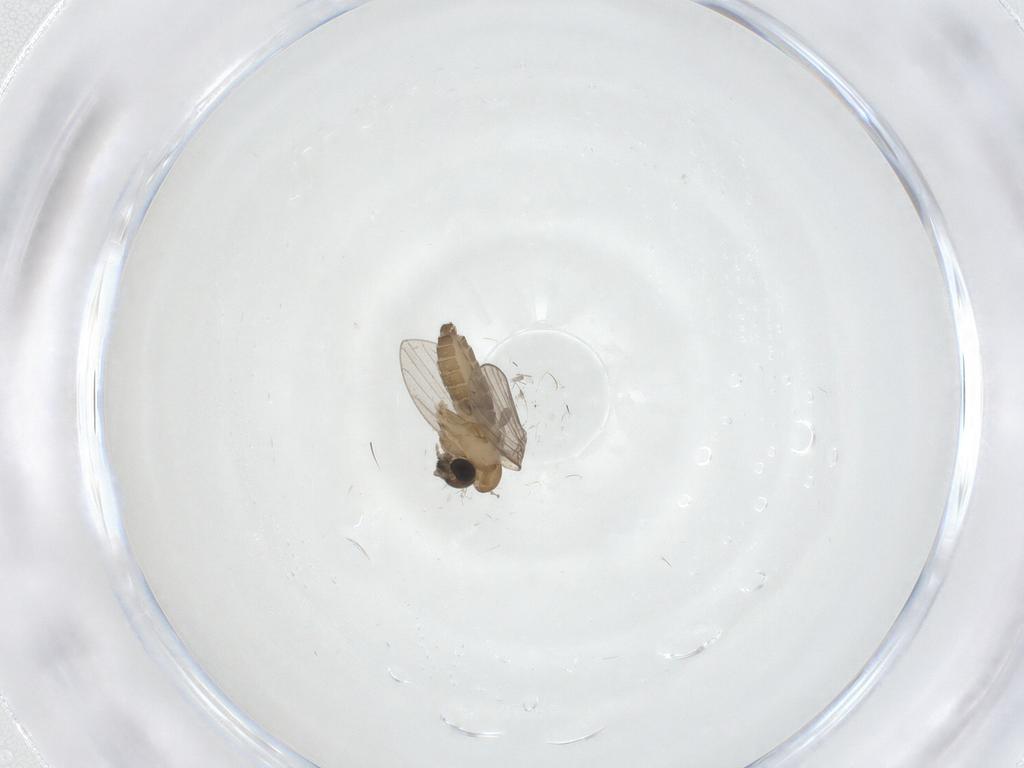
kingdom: Animalia
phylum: Arthropoda
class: Insecta
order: Diptera
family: Cecidomyiidae
